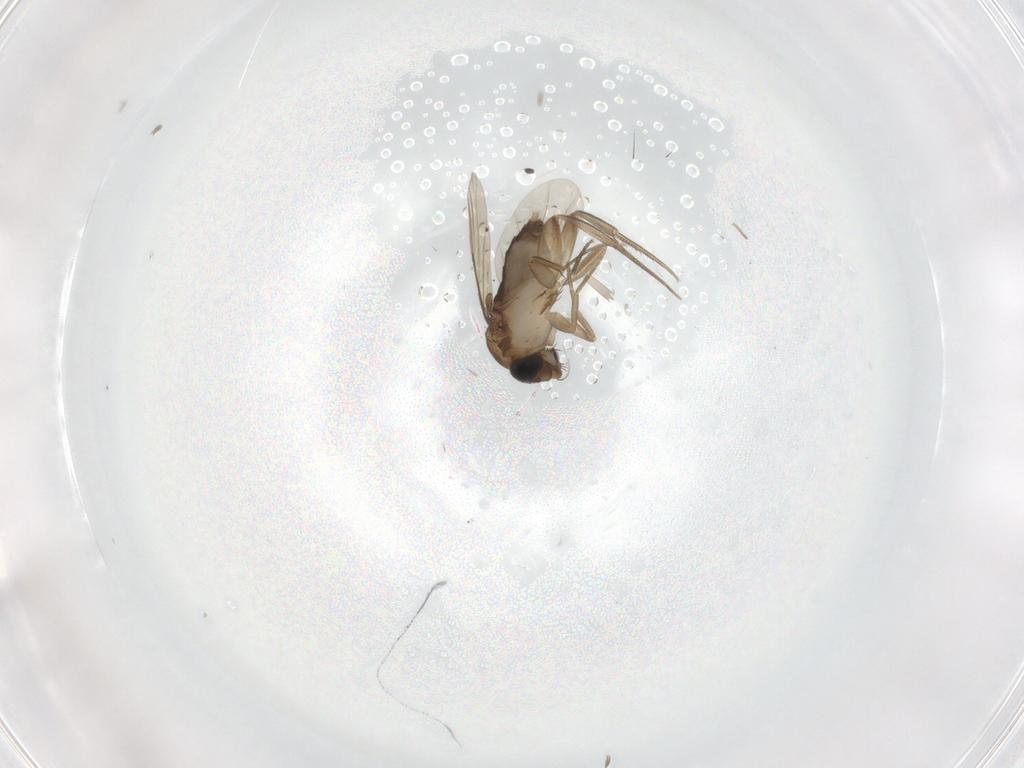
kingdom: Animalia
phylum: Arthropoda
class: Insecta
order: Diptera
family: Phoridae
